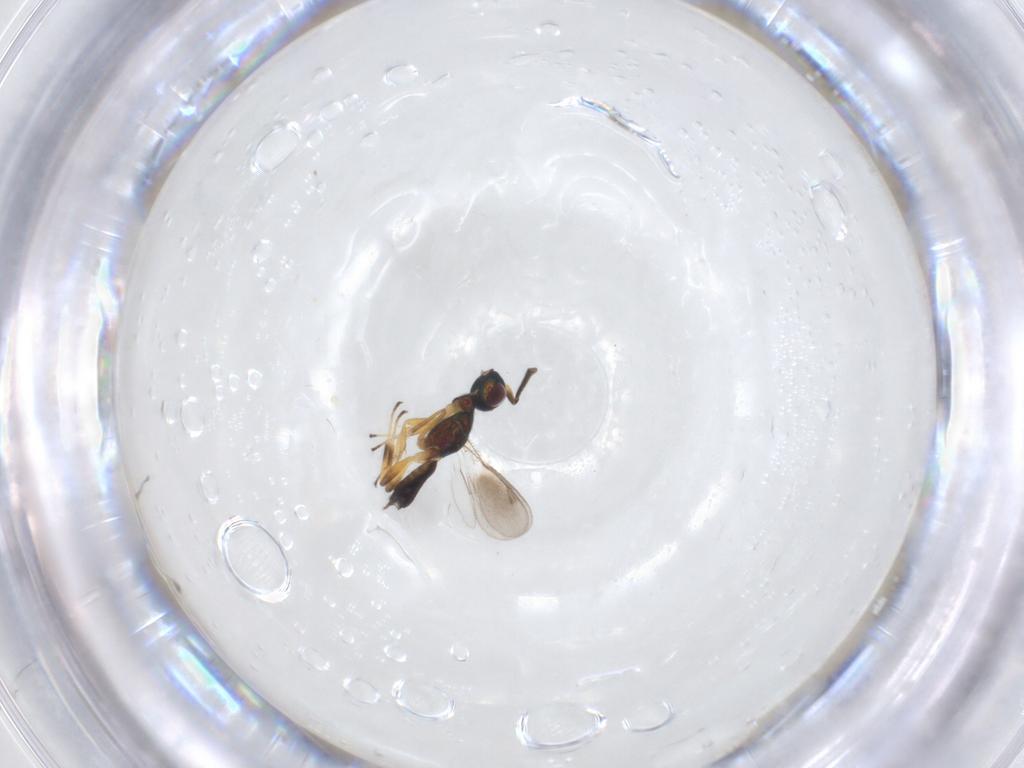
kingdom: Animalia
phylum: Arthropoda
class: Insecta
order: Hymenoptera
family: Eupelmidae
